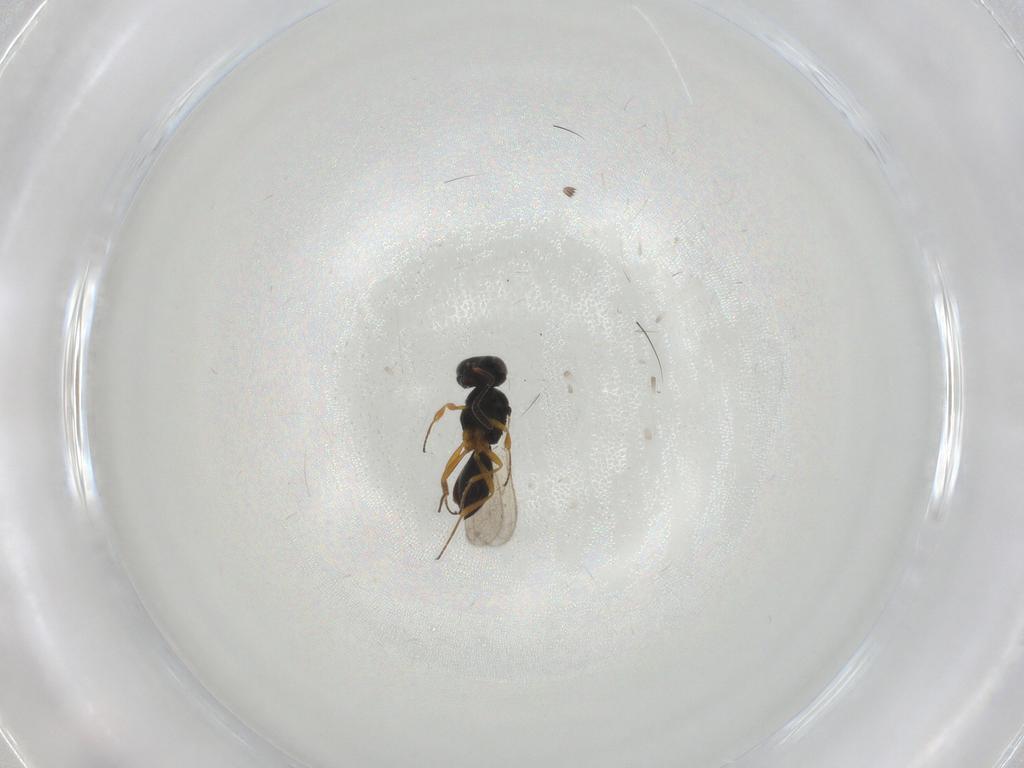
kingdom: Animalia
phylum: Arthropoda
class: Insecta
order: Hymenoptera
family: Scelionidae
